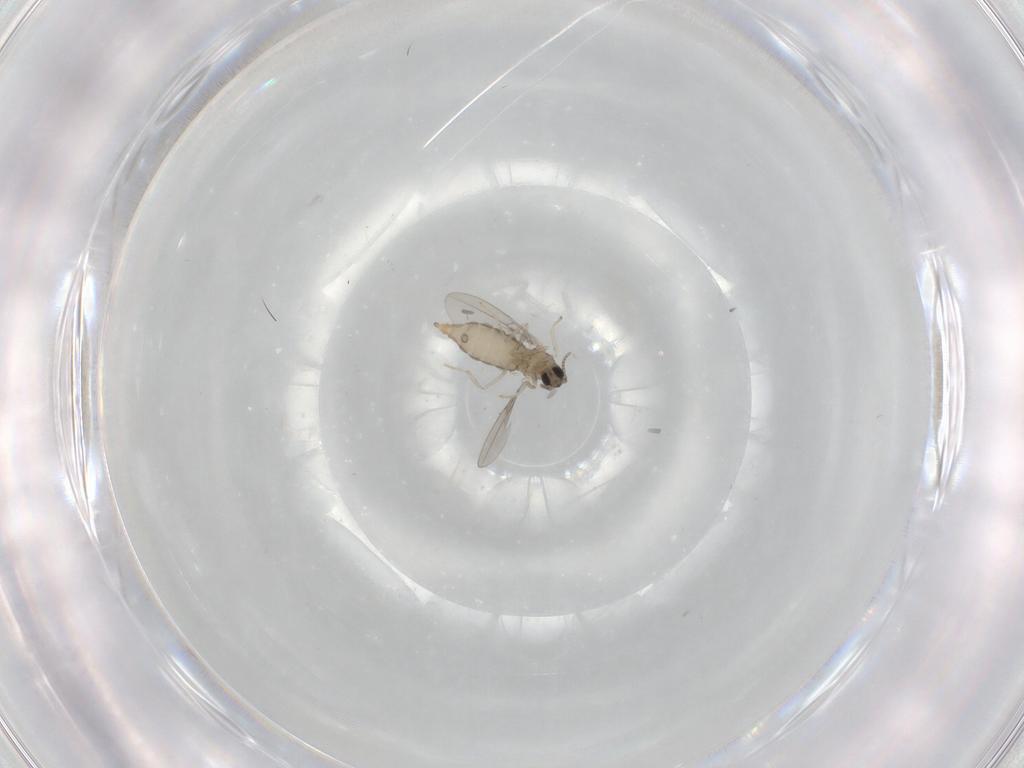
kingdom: Animalia
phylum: Arthropoda
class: Insecta
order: Diptera
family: Cecidomyiidae
